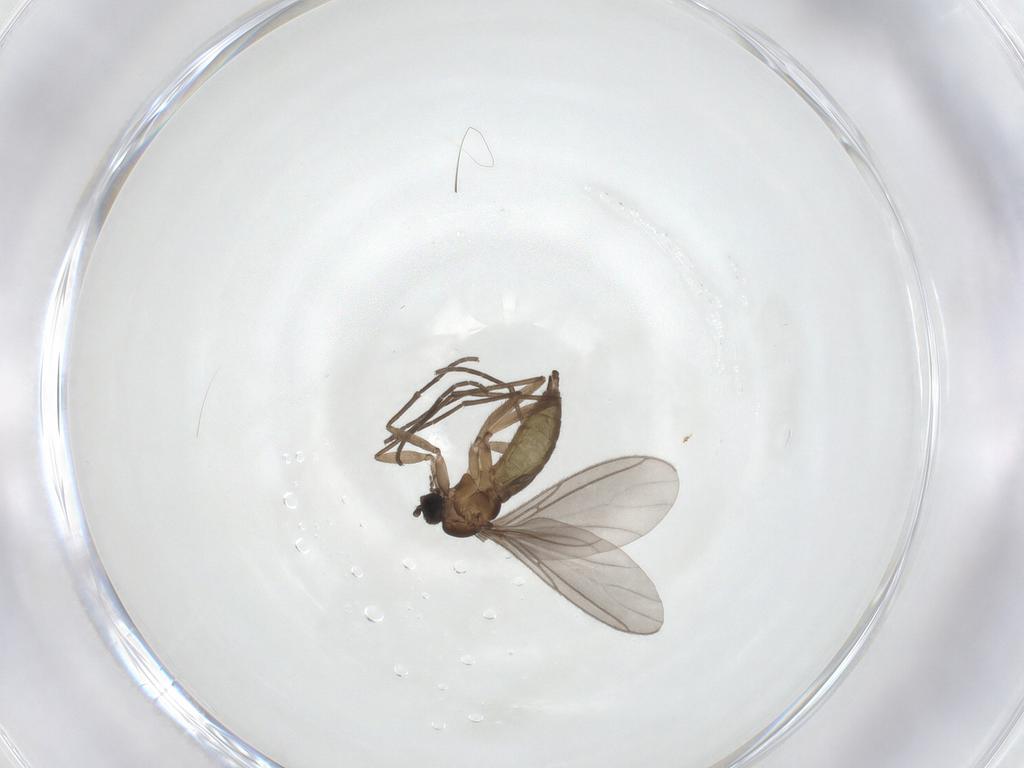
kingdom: Animalia
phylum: Arthropoda
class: Insecta
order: Diptera
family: Sciaridae
